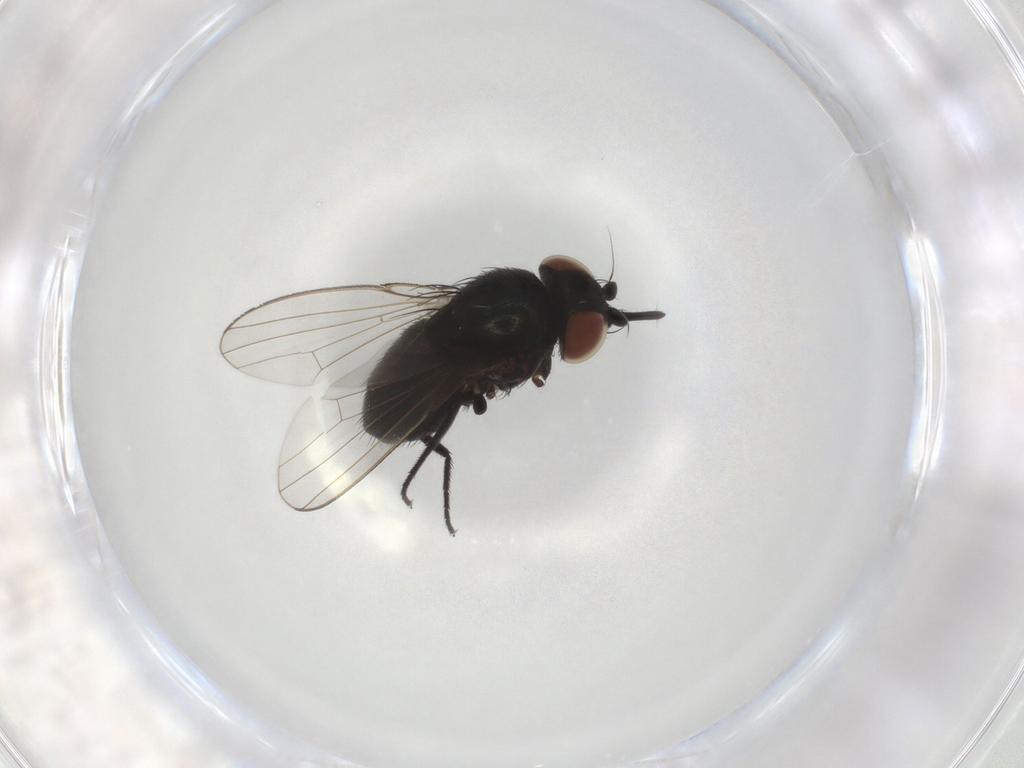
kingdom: Animalia
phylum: Arthropoda
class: Insecta
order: Diptera
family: Milichiidae
